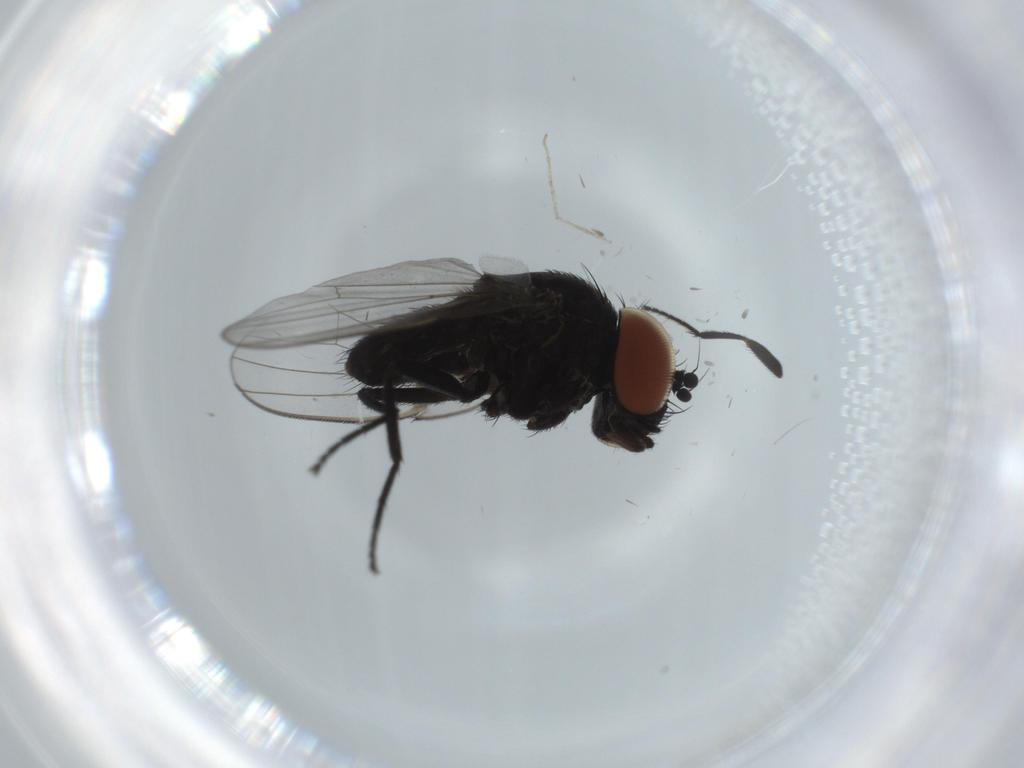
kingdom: Animalia
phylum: Arthropoda
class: Insecta
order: Diptera
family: Milichiidae
